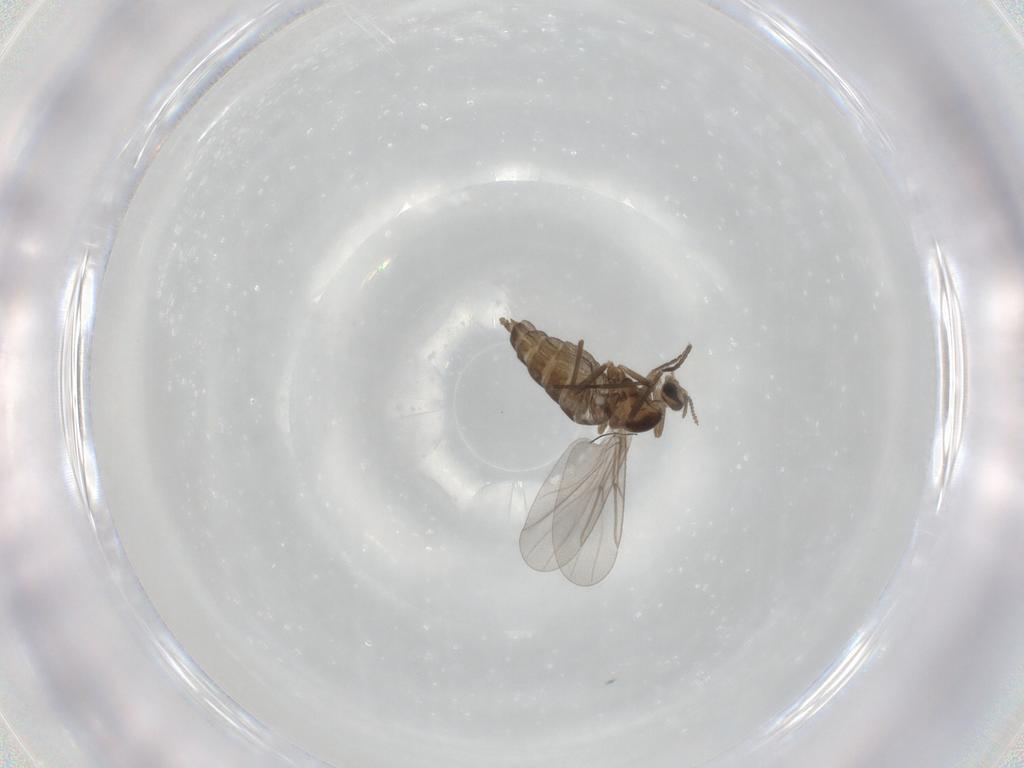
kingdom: Animalia
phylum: Arthropoda
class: Insecta
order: Diptera
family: Cecidomyiidae
